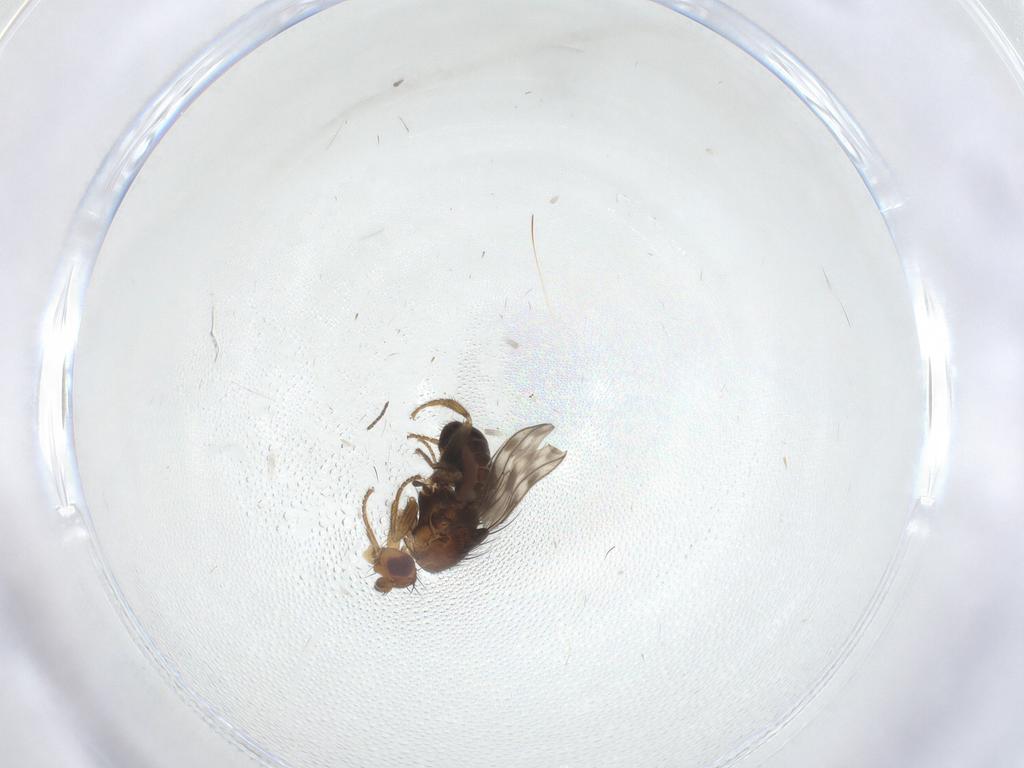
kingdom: Animalia
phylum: Arthropoda
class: Insecta
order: Diptera
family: Sphaeroceridae
